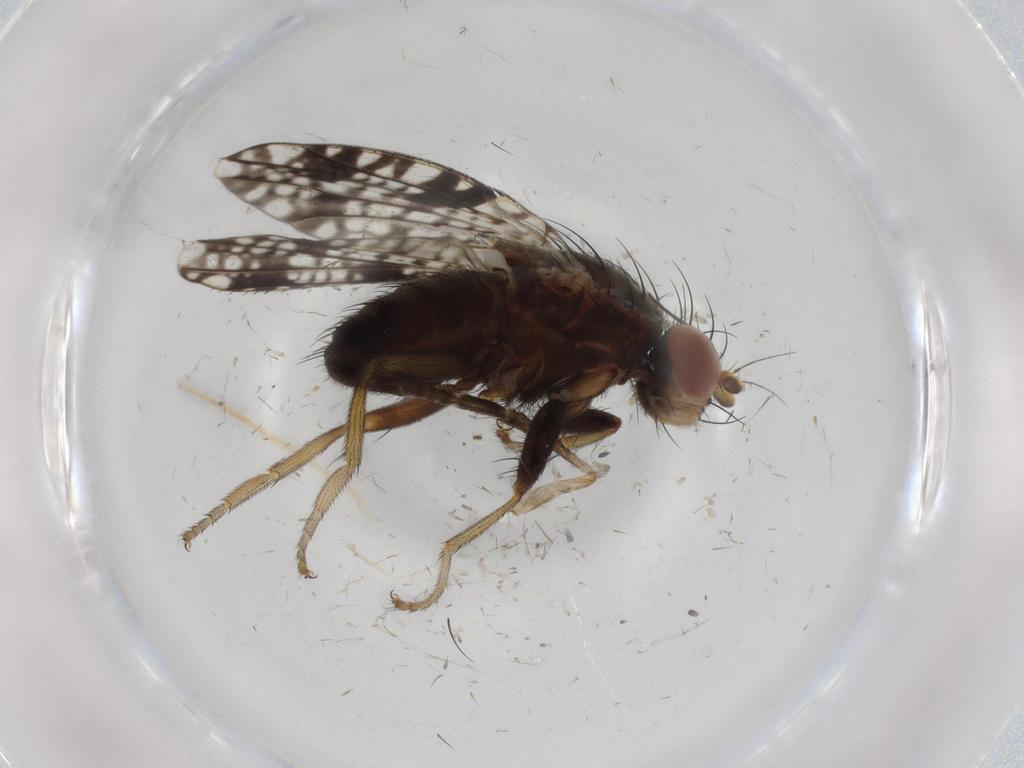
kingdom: Animalia
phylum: Arthropoda
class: Insecta
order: Diptera
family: Tephritidae
